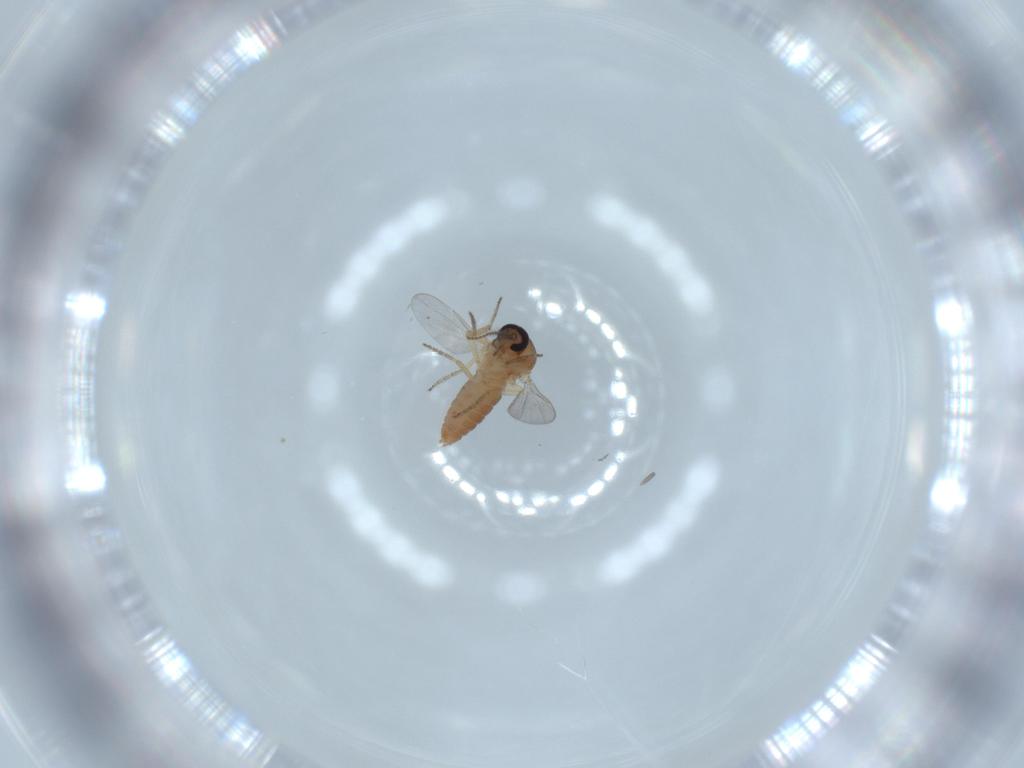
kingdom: Animalia
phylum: Arthropoda
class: Insecta
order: Diptera
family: Ceratopogonidae
